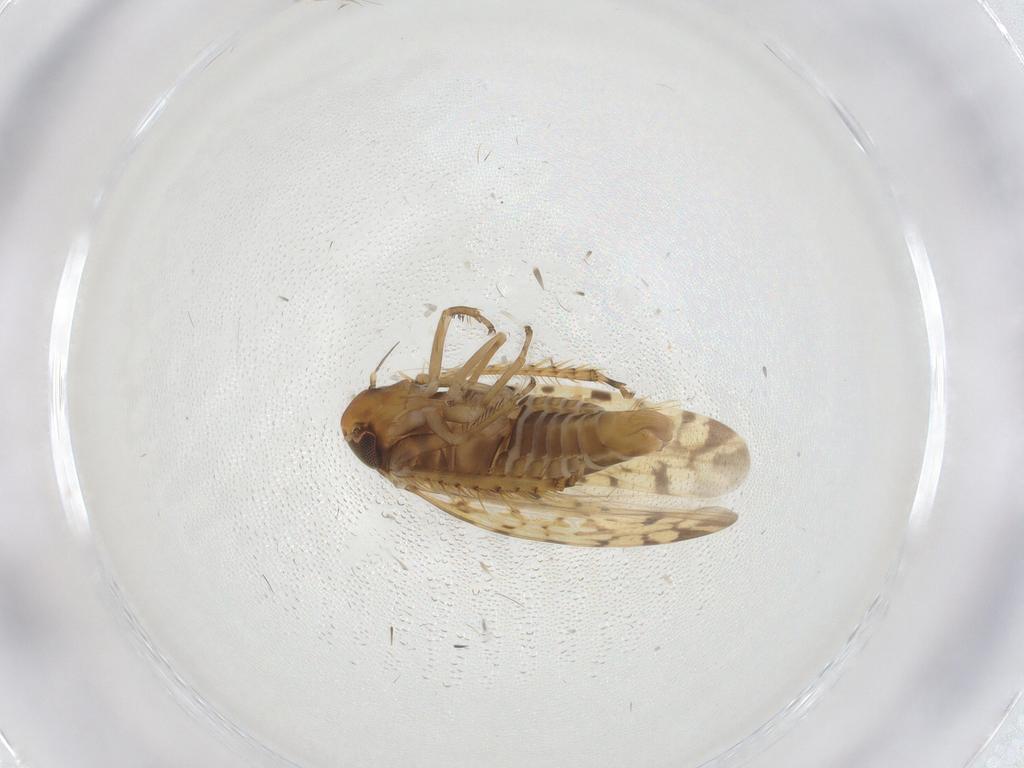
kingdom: Animalia
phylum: Arthropoda
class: Insecta
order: Hemiptera
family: Cicadellidae
